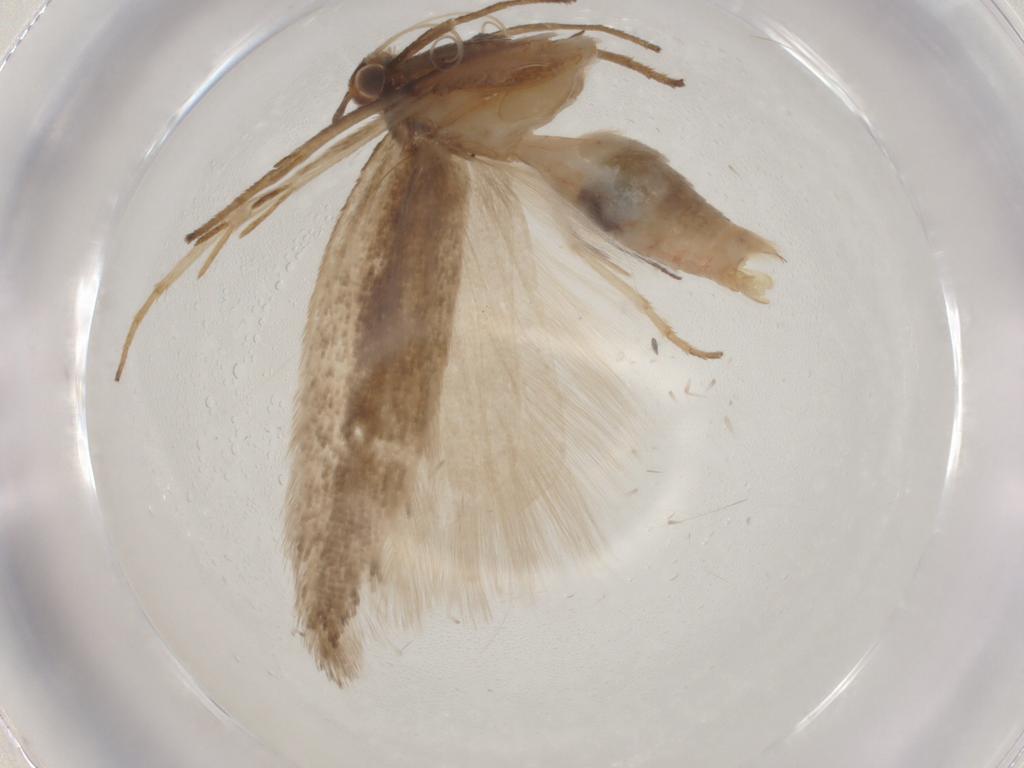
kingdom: Animalia
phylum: Arthropoda
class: Insecta
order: Lepidoptera
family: Gelechiidae
